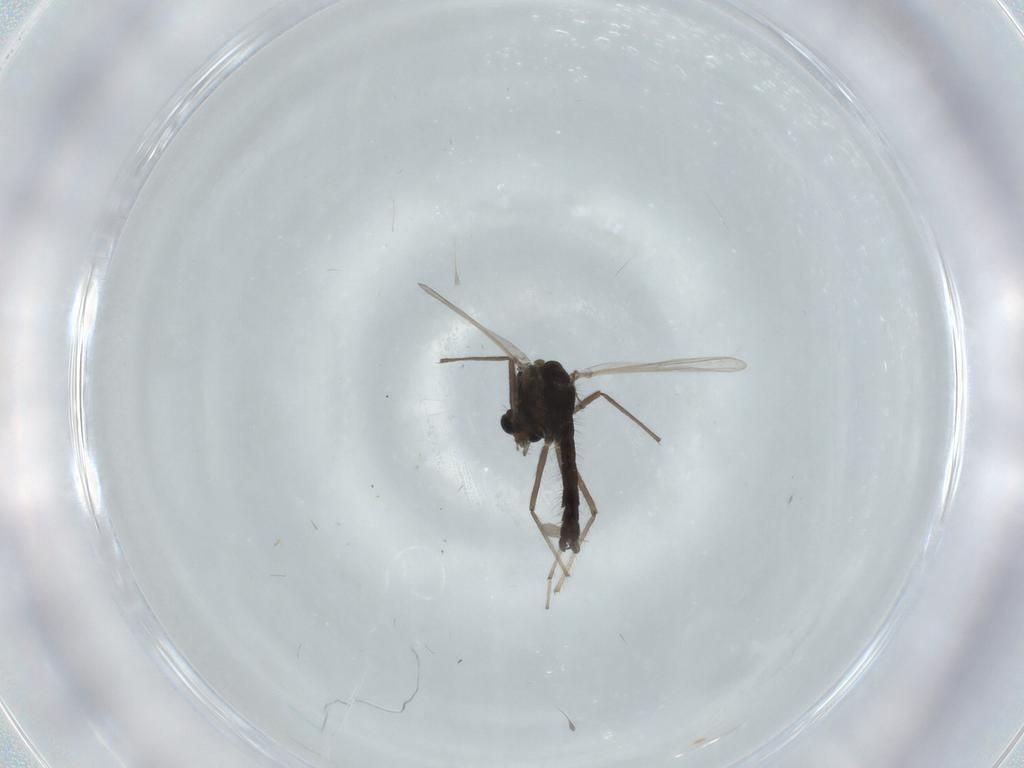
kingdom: Animalia
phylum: Arthropoda
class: Insecta
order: Diptera
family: Chironomidae
